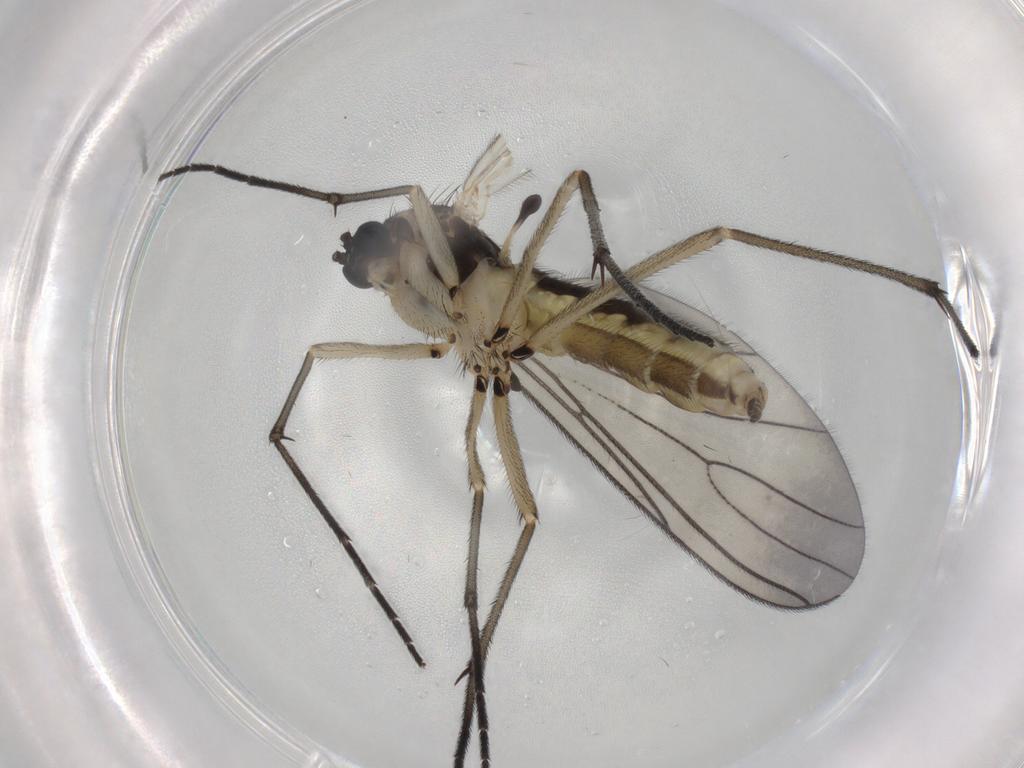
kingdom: Animalia
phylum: Arthropoda
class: Insecta
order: Diptera
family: Sciaridae
